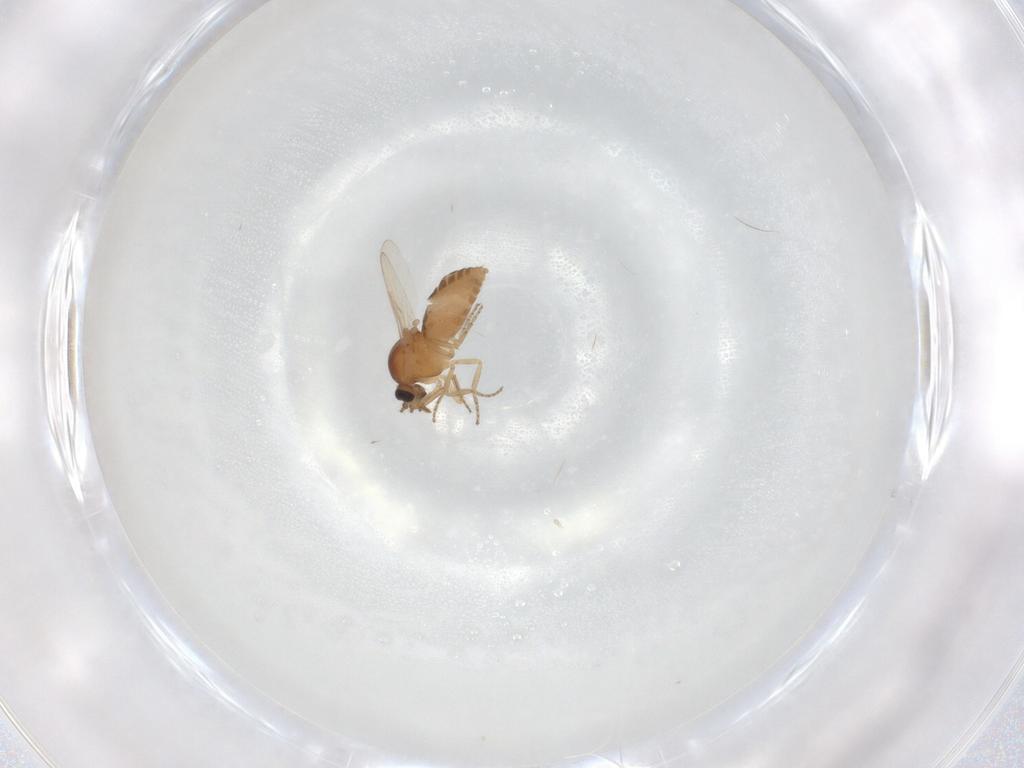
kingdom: Animalia
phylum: Arthropoda
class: Insecta
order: Diptera
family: Ceratopogonidae
